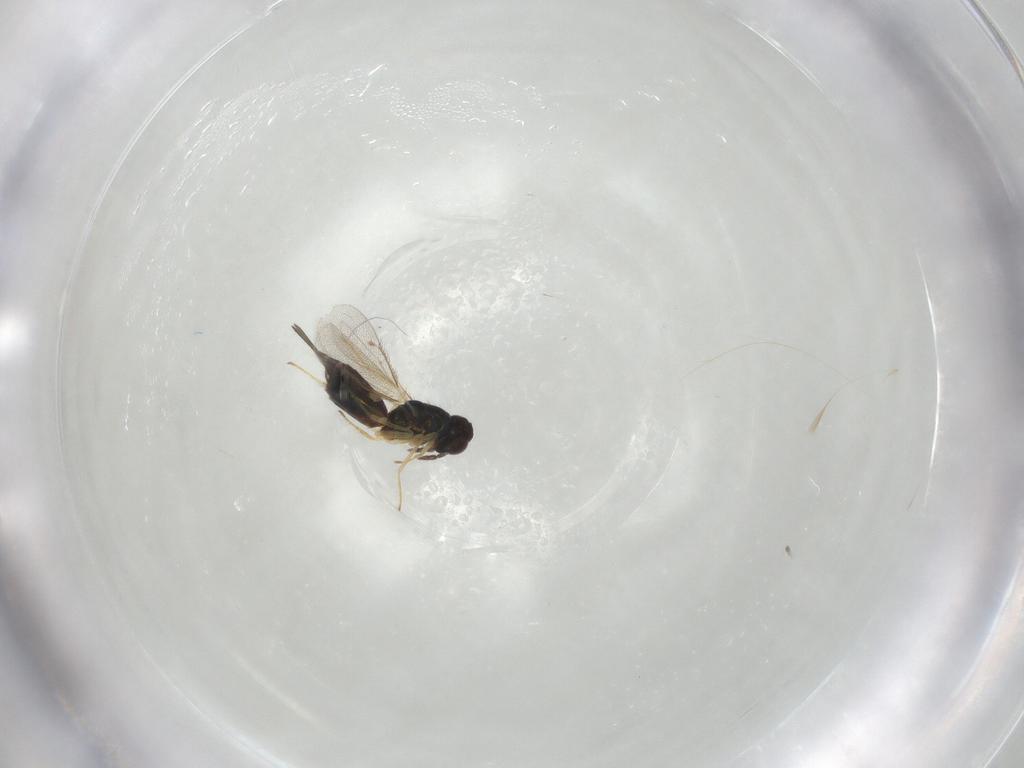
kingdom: Animalia
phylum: Arthropoda
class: Insecta
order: Hymenoptera
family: Eulophidae
